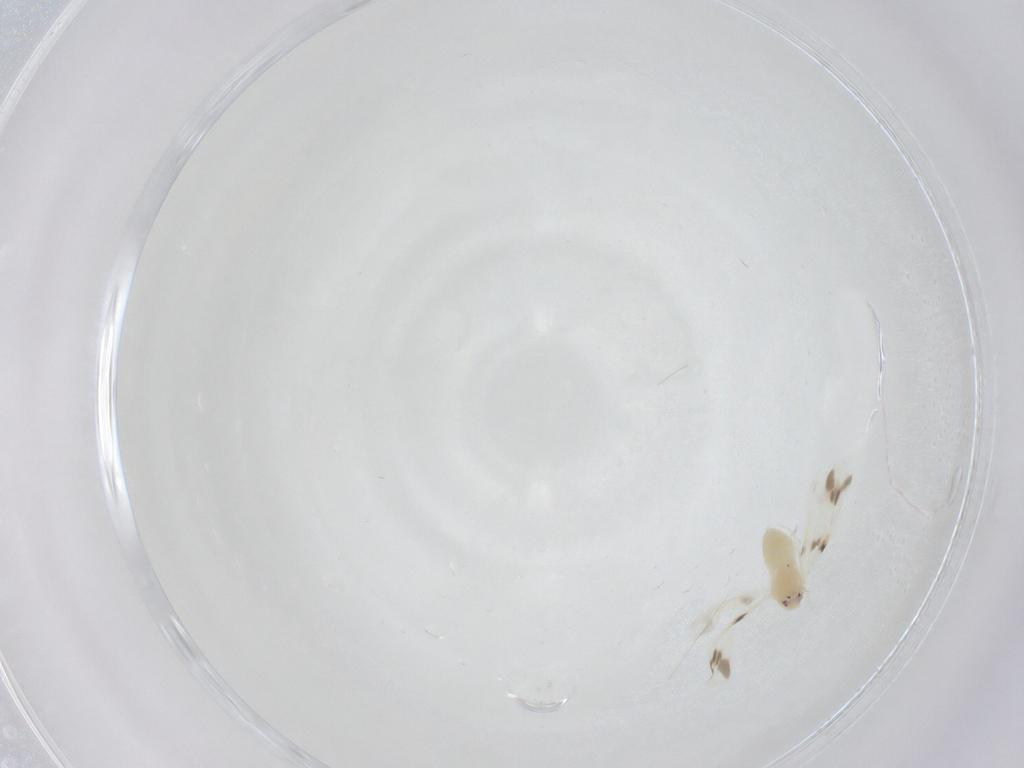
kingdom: Animalia
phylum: Arthropoda
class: Insecta
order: Hemiptera
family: Aleyrodidae
